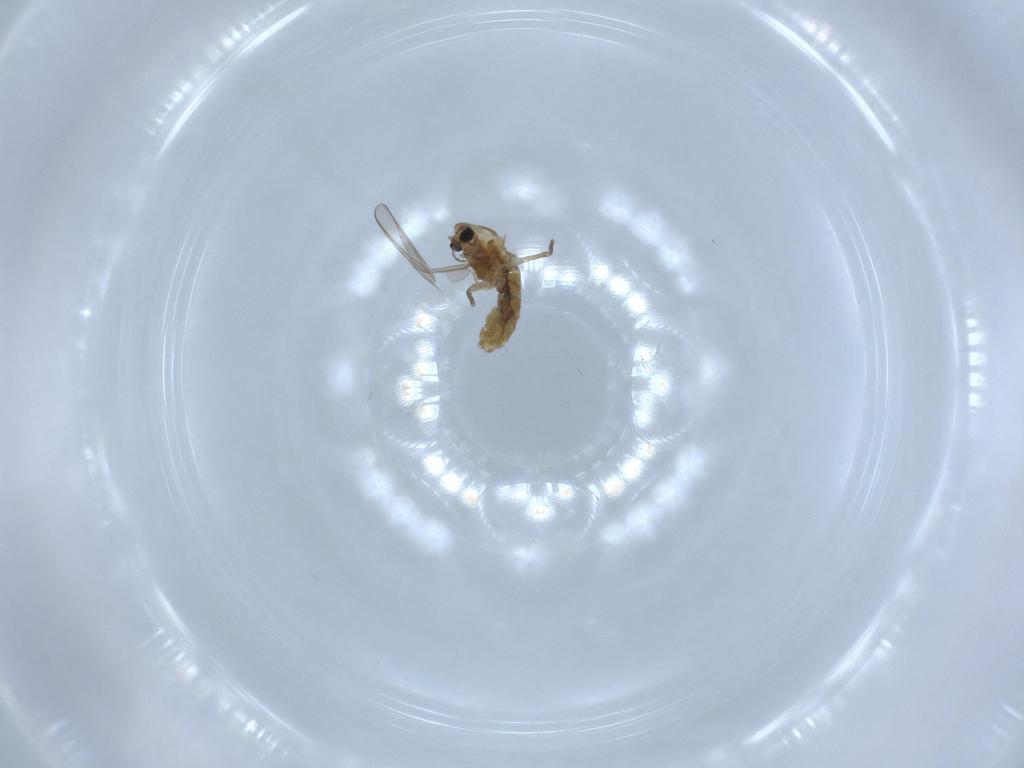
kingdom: Animalia
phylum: Arthropoda
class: Insecta
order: Diptera
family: Chironomidae
